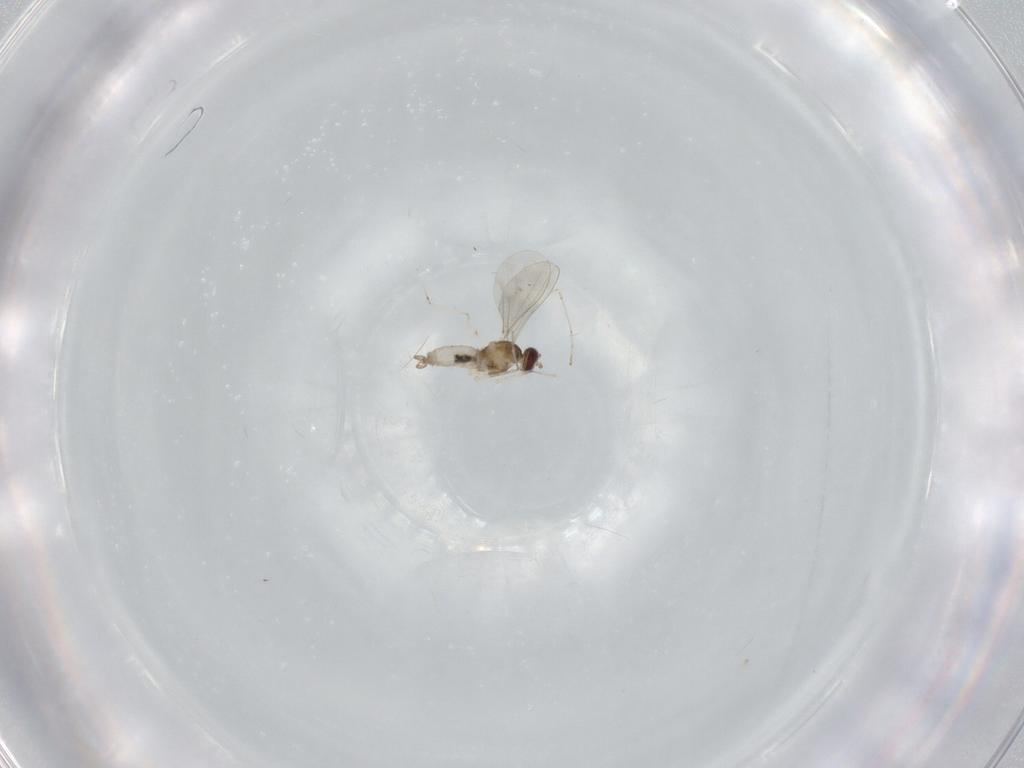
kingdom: Animalia
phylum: Arthropoda
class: Insecta
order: Diptera
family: Cecidomyiidae
